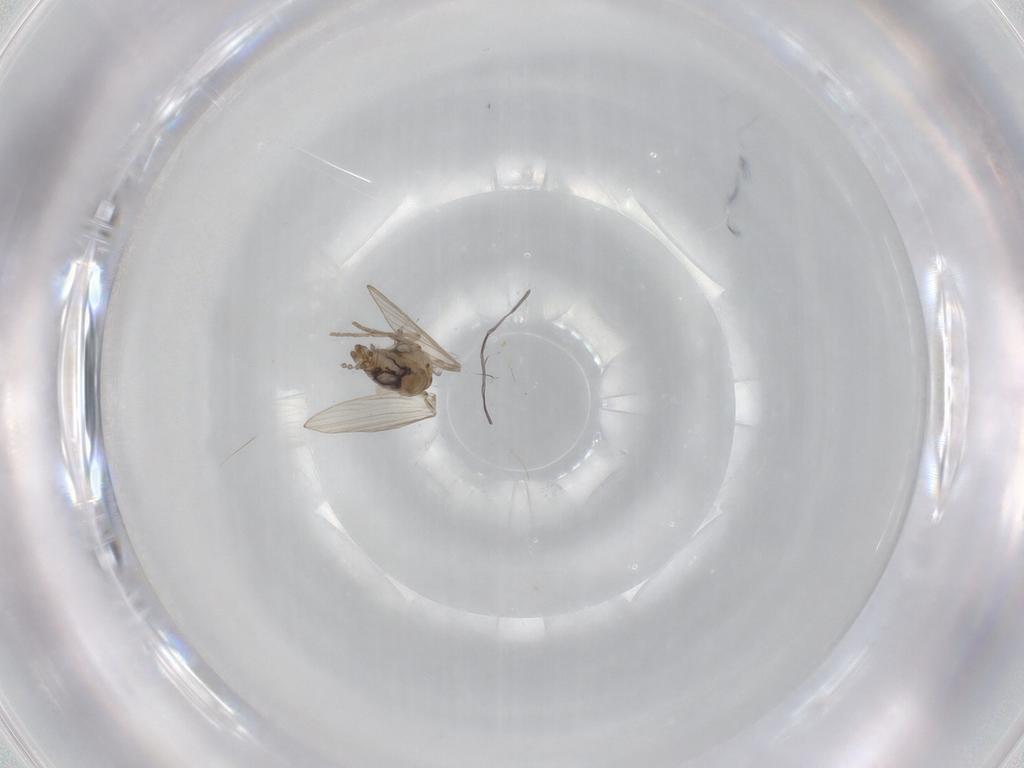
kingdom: Animalia
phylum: Arthropoda
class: Insecta
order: Diptera
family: Psychodidae
